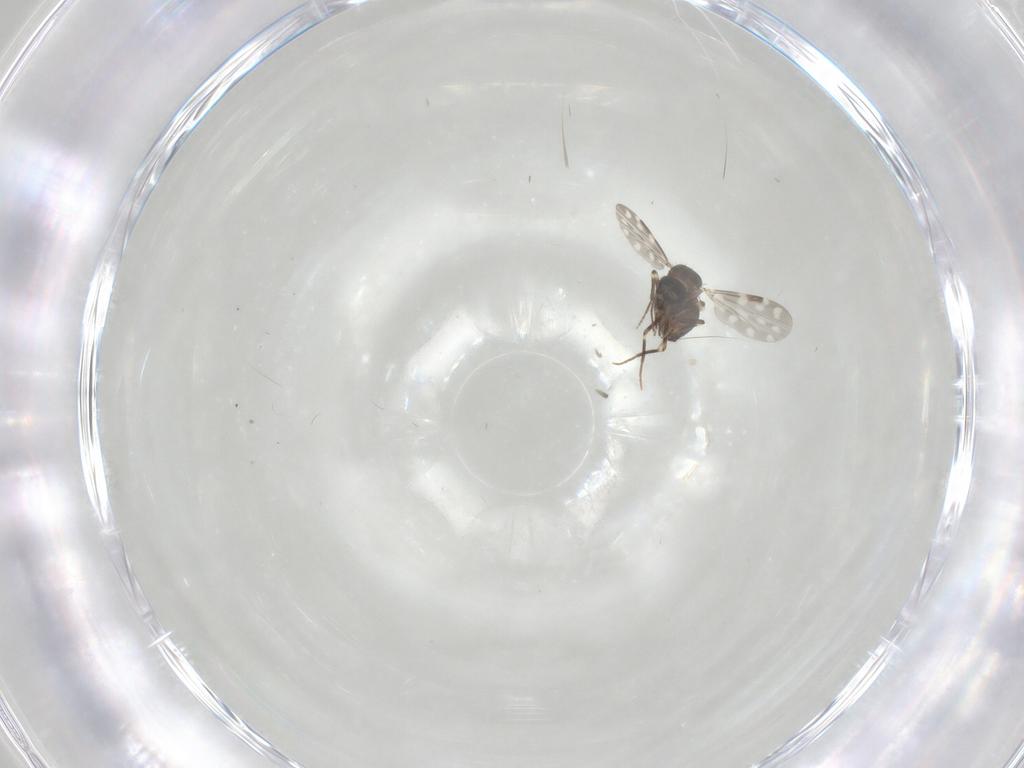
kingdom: Animalia
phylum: Arthropoda
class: Insecta
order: Diptera
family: Ceratopogonidae
